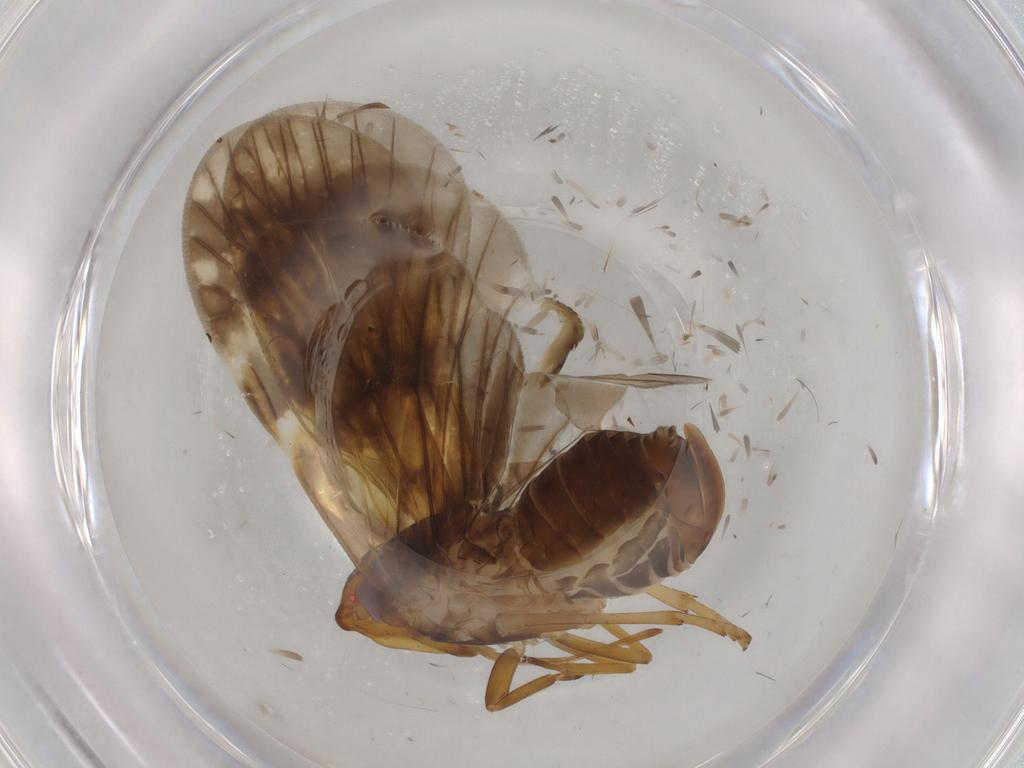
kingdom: Animalia
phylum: Arthropoda
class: Insecta
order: Hemiptera
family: Cixiidae
